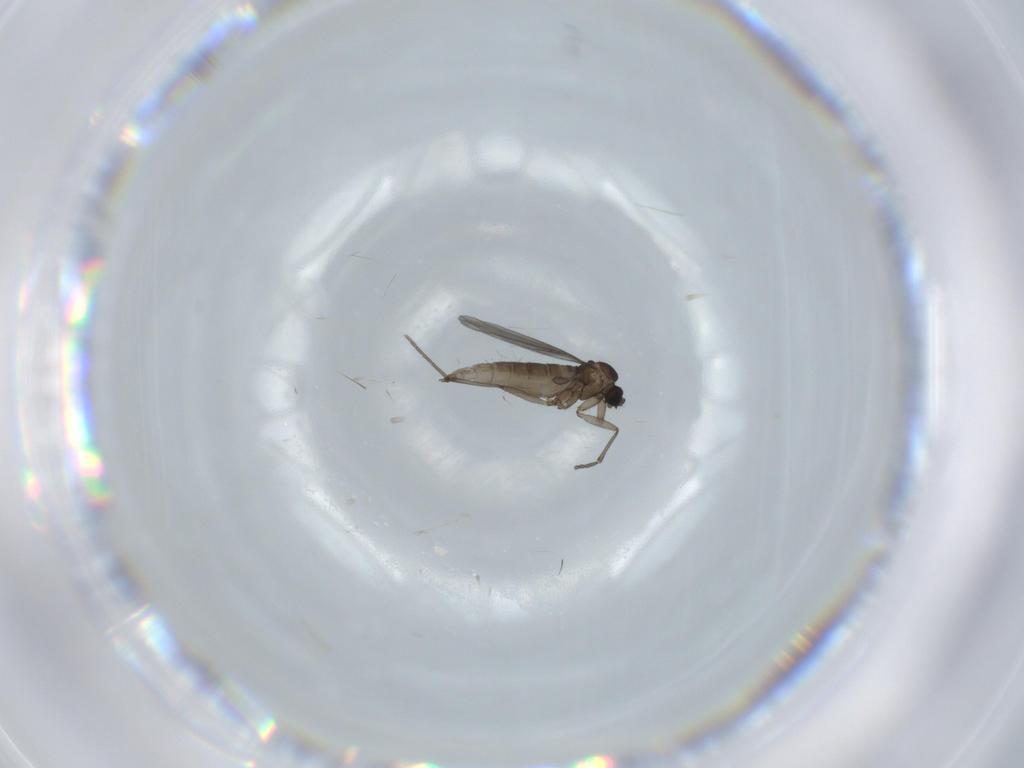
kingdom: Animalia
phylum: Arthropoda
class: Insecta
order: Diptera
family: Sciaridae
